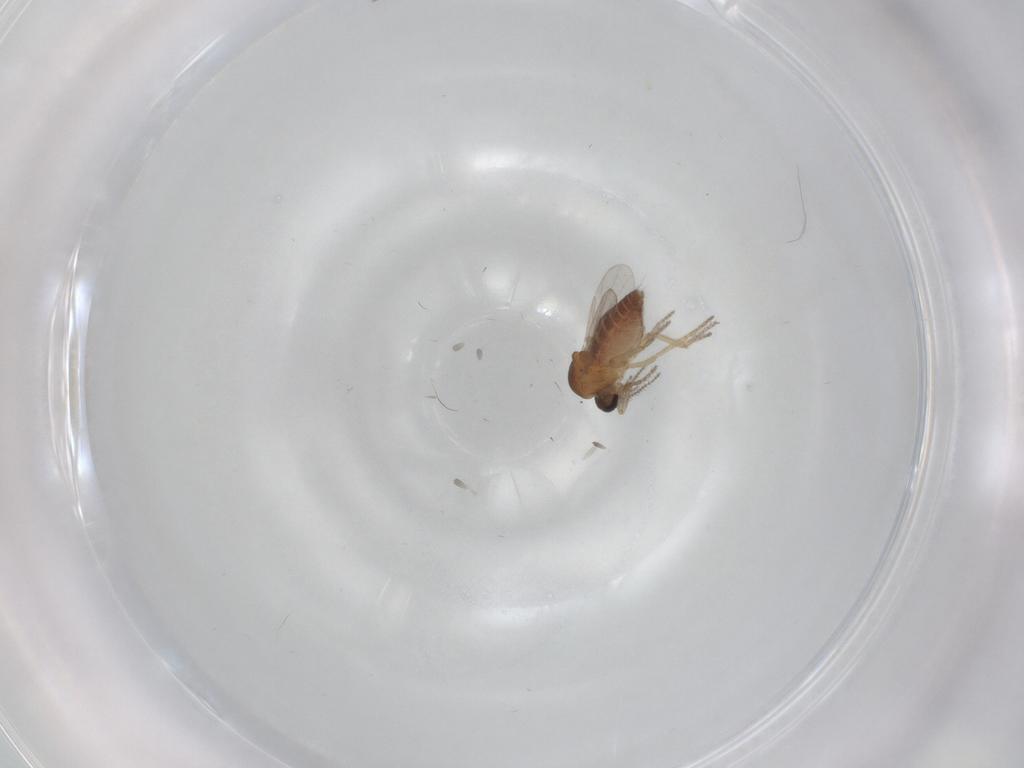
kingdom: Animalia
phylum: Arthropoda
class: Insecta
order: Diptera
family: Ceratopogonidae
